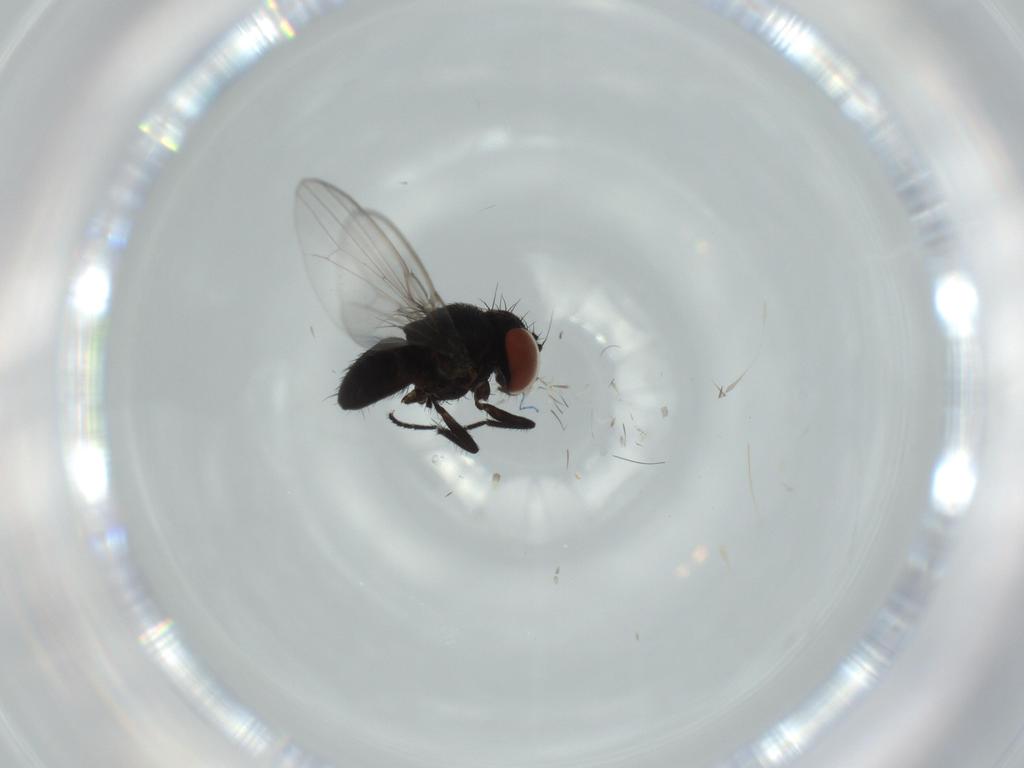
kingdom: Animalia
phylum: Arthropoda
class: Insecta
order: Diptera
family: Milichiidae
